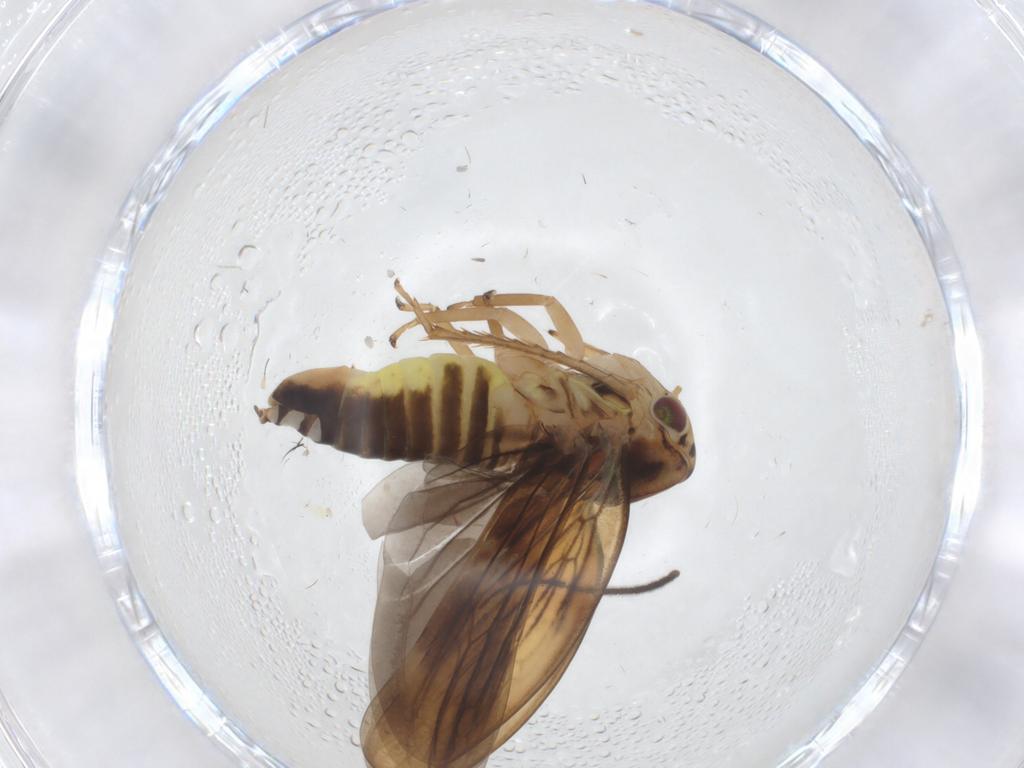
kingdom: Animalia
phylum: Arthropoda
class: Insecta
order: Hemiptera
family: Cicadellidae
